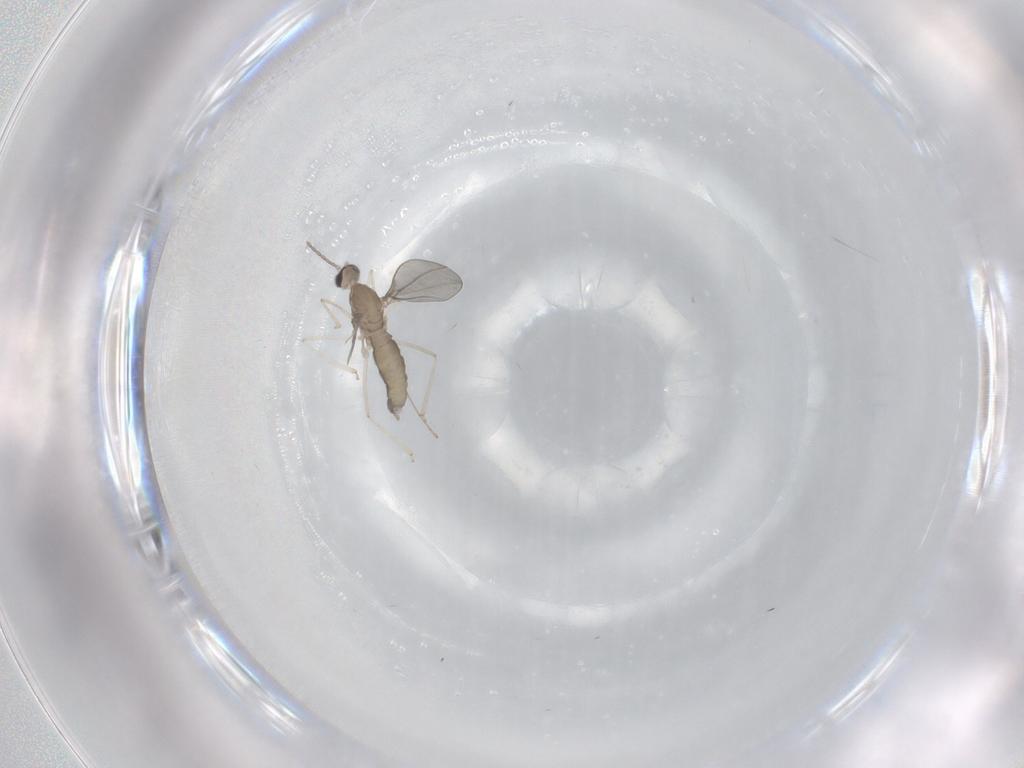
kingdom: Animalia
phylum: Arthropoda
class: Insecta
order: Diptera
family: Cecidomyiidae
